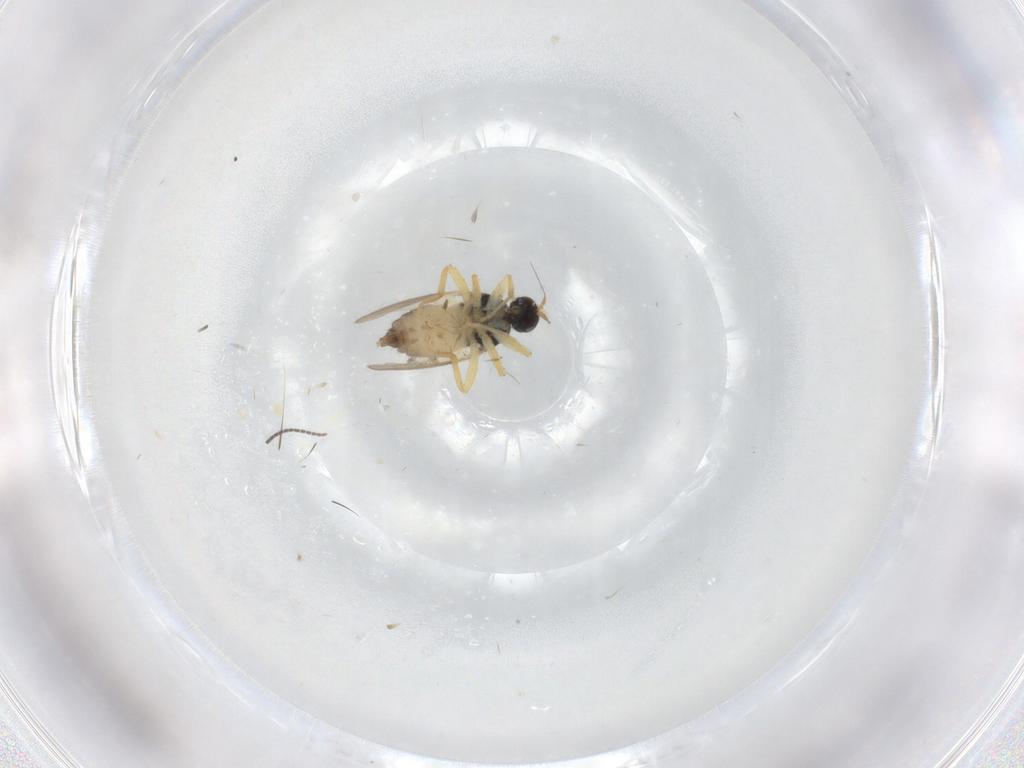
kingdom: Animalia
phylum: Arthropoda
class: Insecta
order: Diptera
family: Hybotidae
